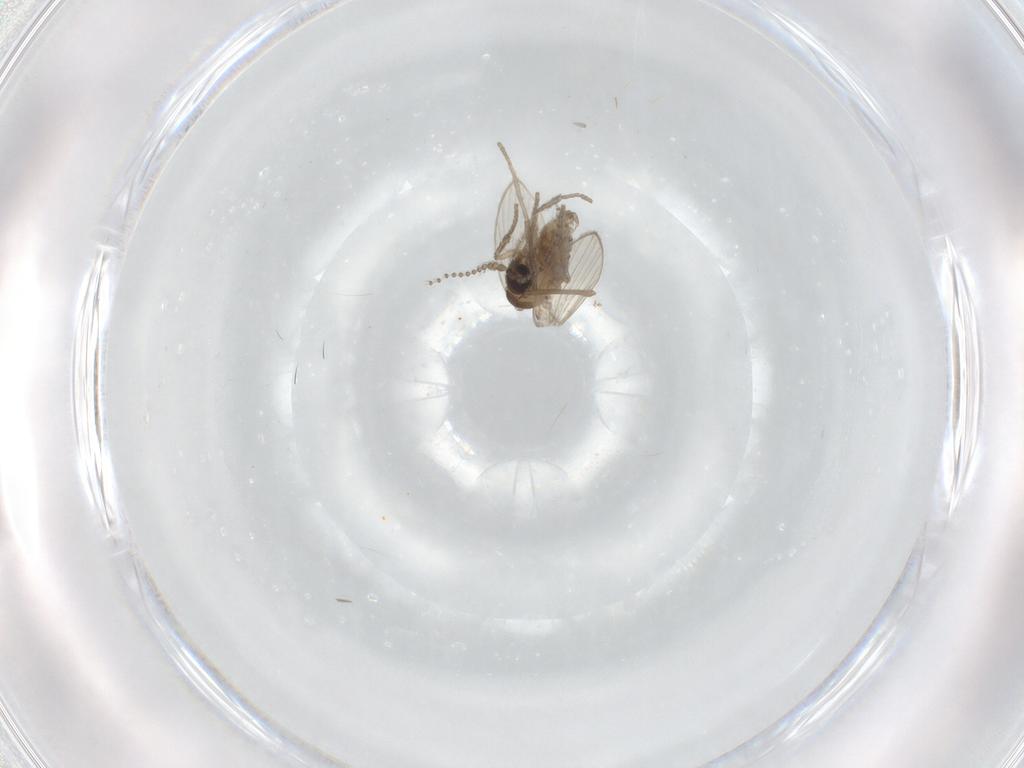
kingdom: Animalia
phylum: Arthropoda
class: Insecta
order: Diptera
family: Psychodidae
